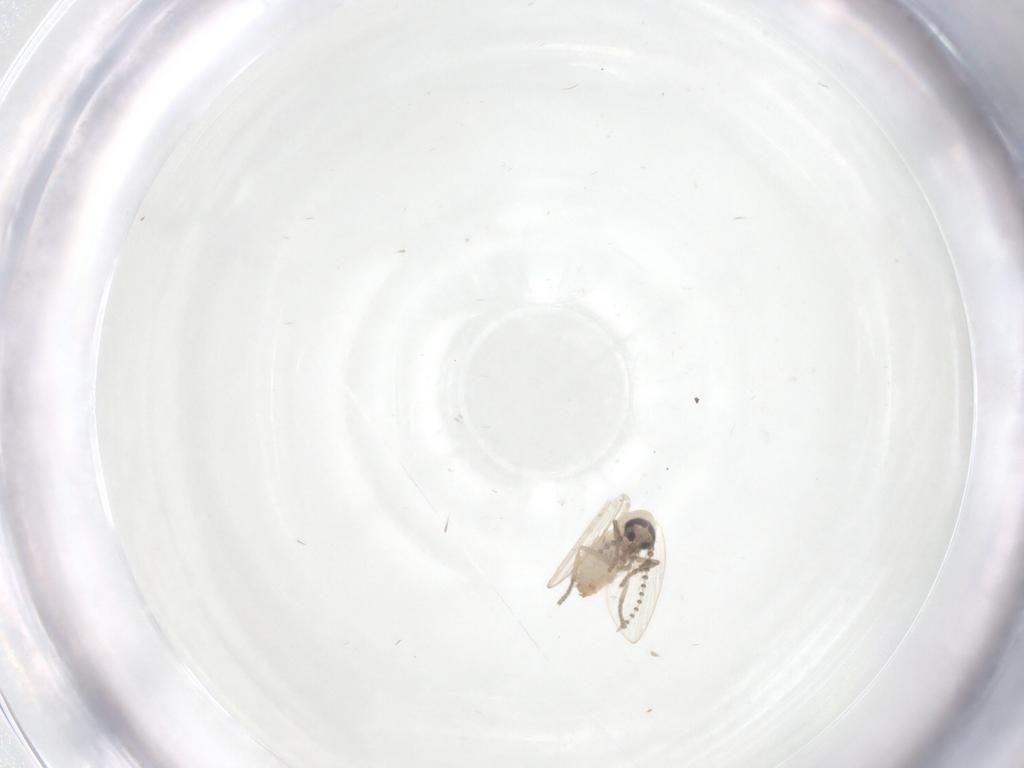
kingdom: Animalia
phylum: Arthropoda
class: Insecta
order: Diptera
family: Psychodidae
